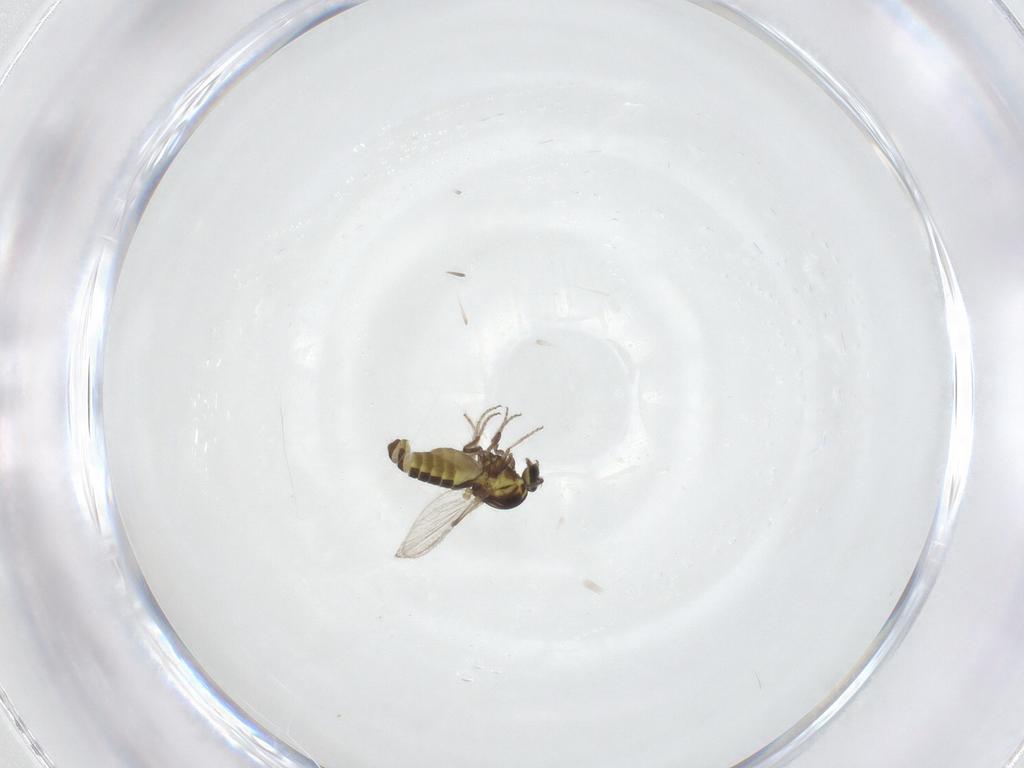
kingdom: Animalia
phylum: Arthropoda
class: Insecta
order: Diptera
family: Ceratopogonidae
